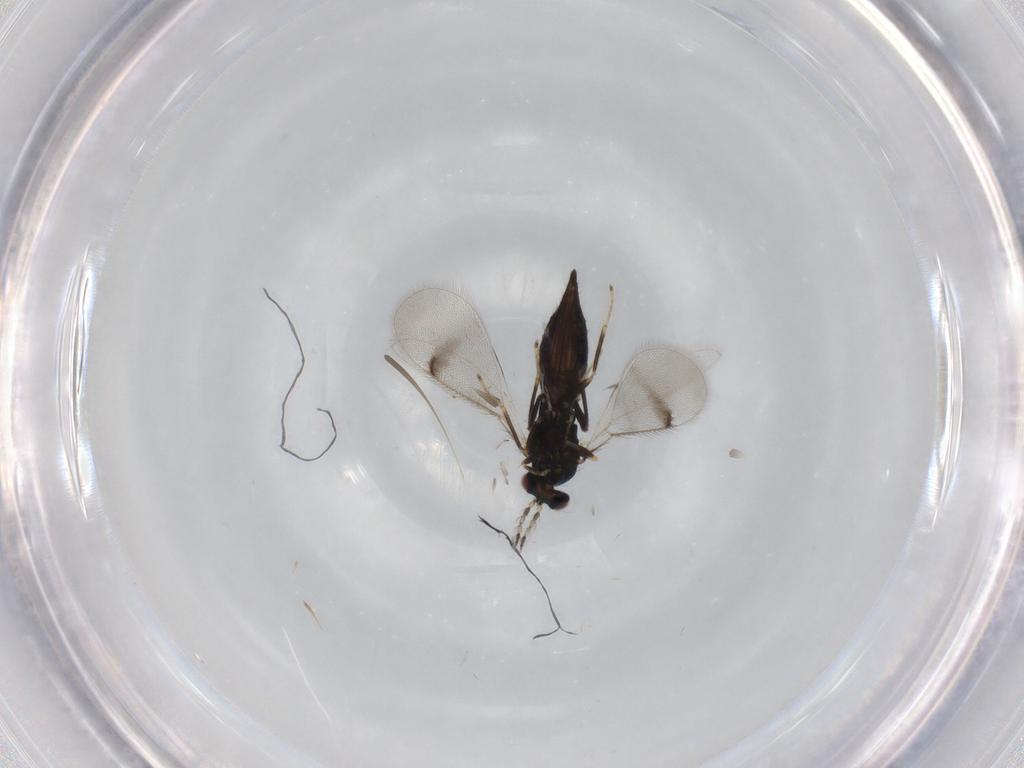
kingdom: Animalia
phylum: Arthropoda
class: Insecta
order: Hymenoptera
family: Eulophidae
